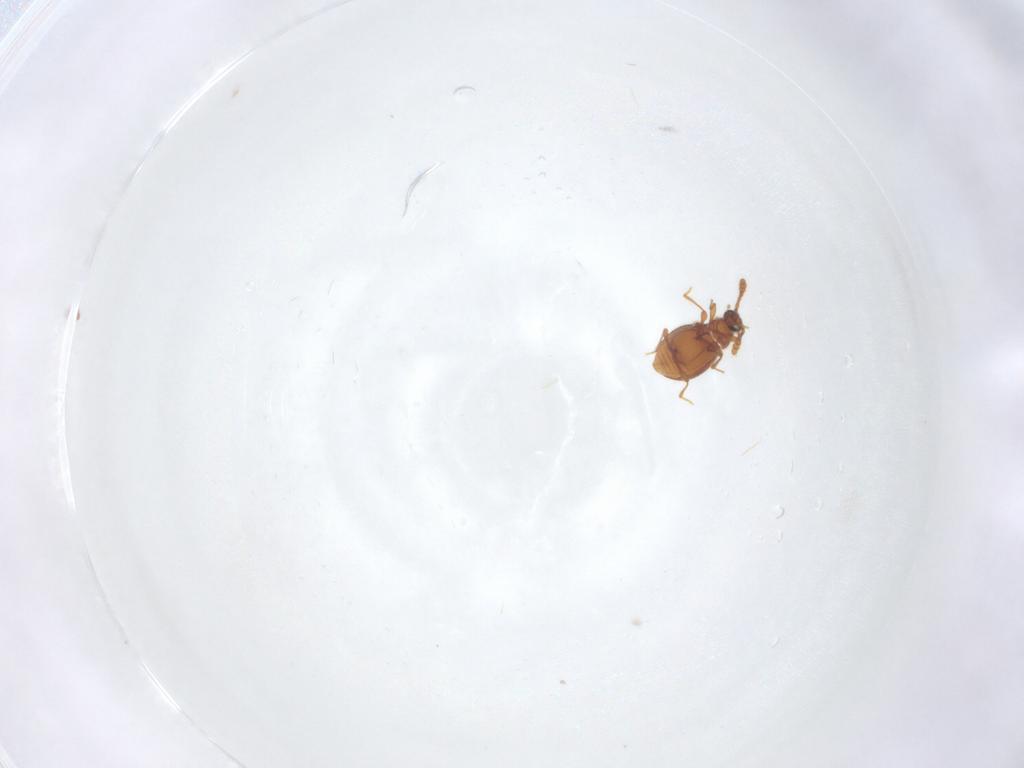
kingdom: Animalia
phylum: Arthropoda
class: Insecta
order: Coleoptera
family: Staphylinidae
